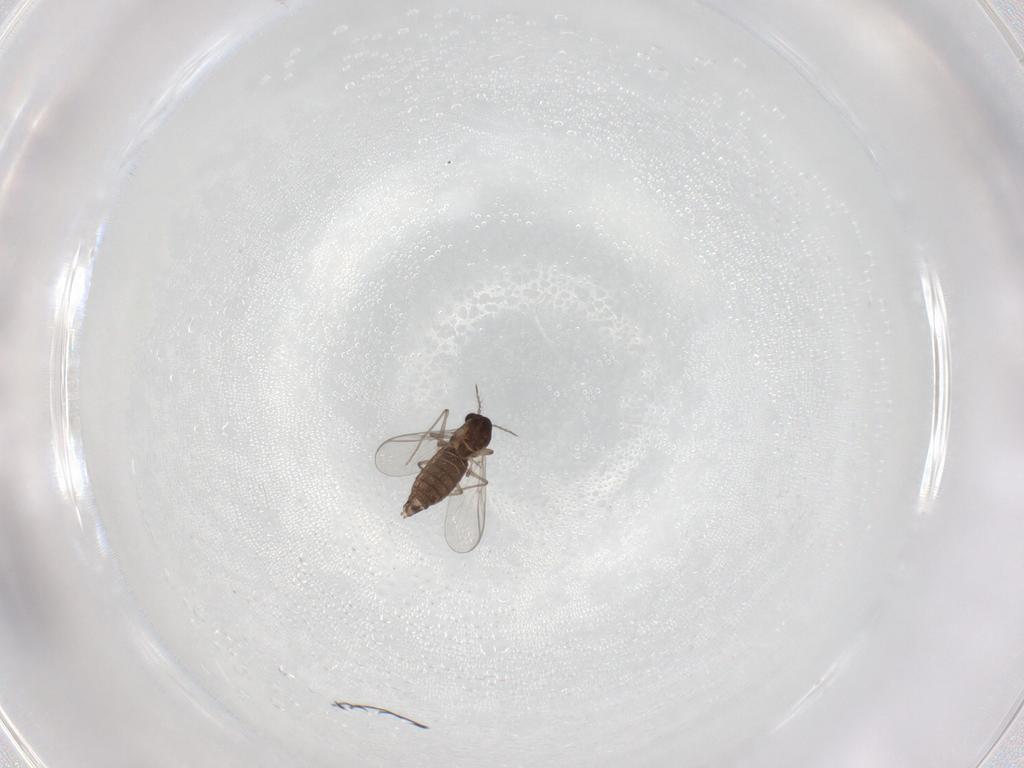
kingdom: Animalia
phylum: Arthropoda
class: Insecta
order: Diptera
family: Chironomidae
